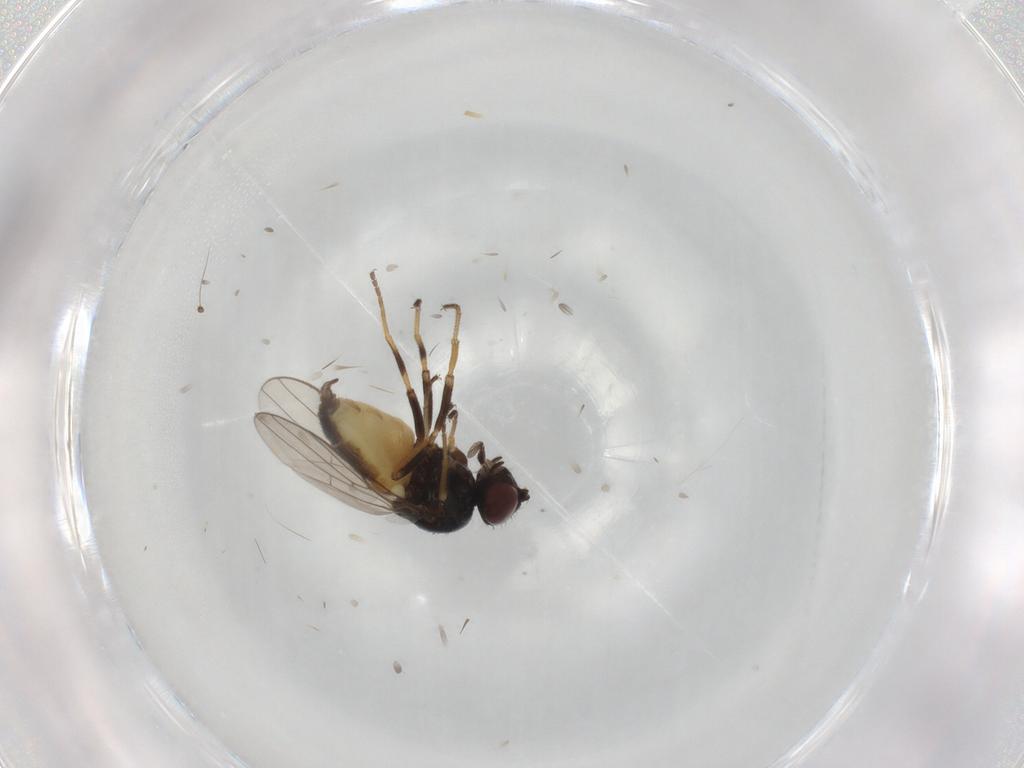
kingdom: Animalia
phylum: Arthropoda
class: Insecta
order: Diptera
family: Chloropidae
